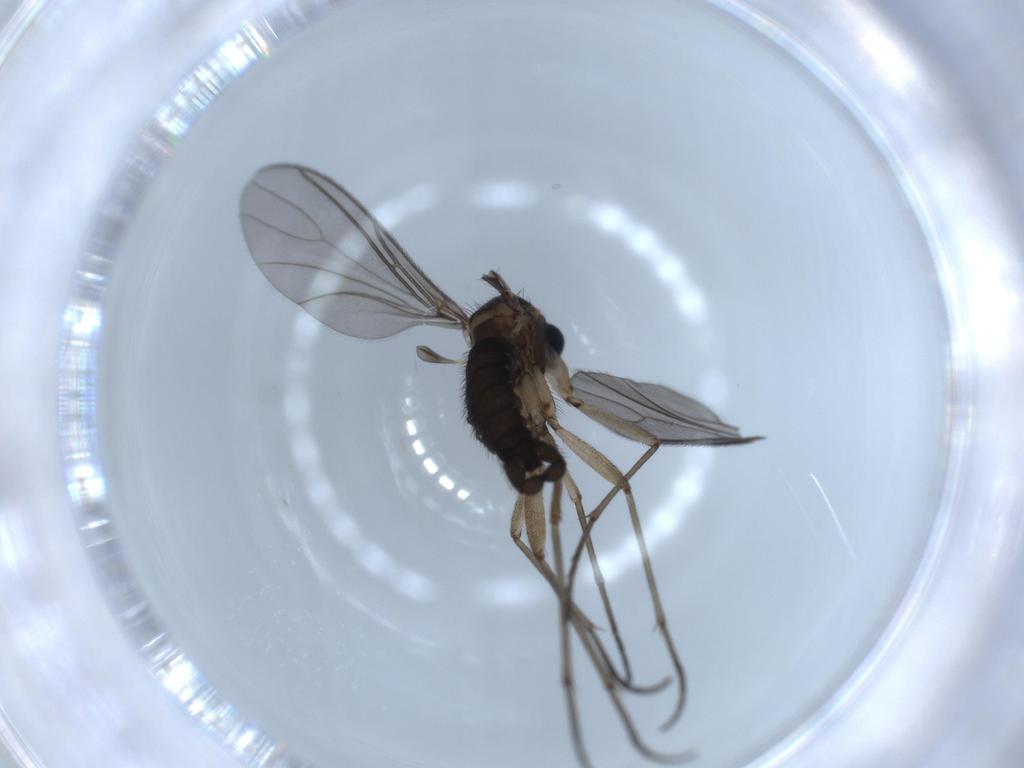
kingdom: Animalia
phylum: Arthropoda
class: Insecta
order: Diptera
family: Sciaridae
